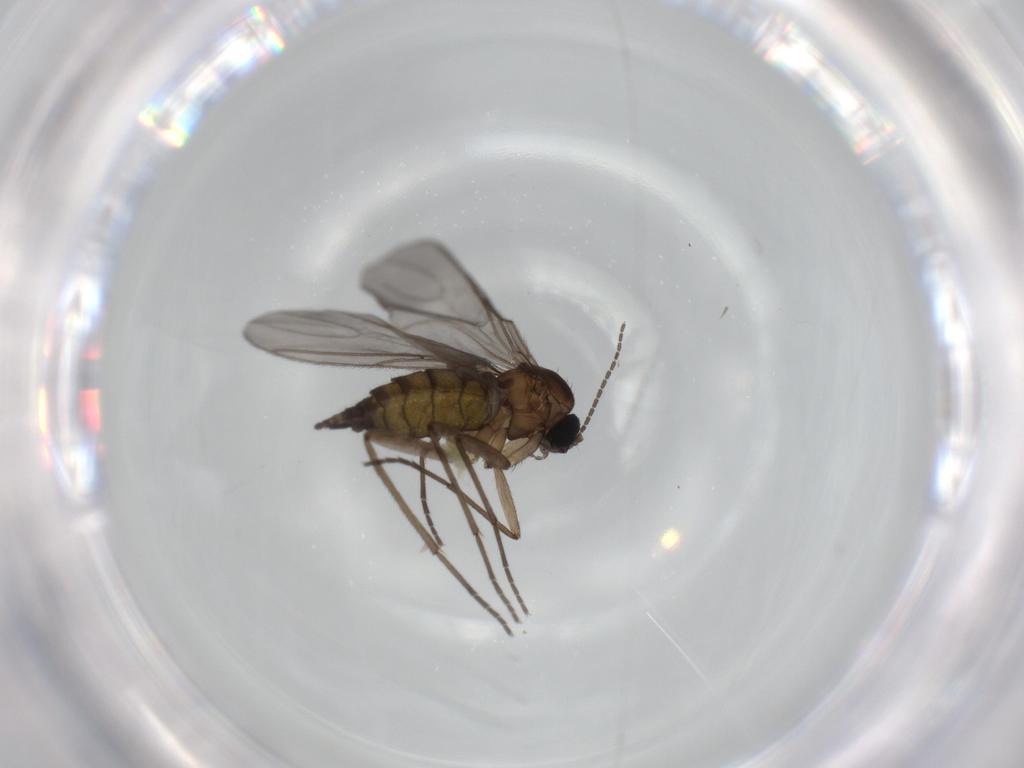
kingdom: Animalia
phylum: Arthropoda
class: Insecta
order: Diptera
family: Sciaridae
